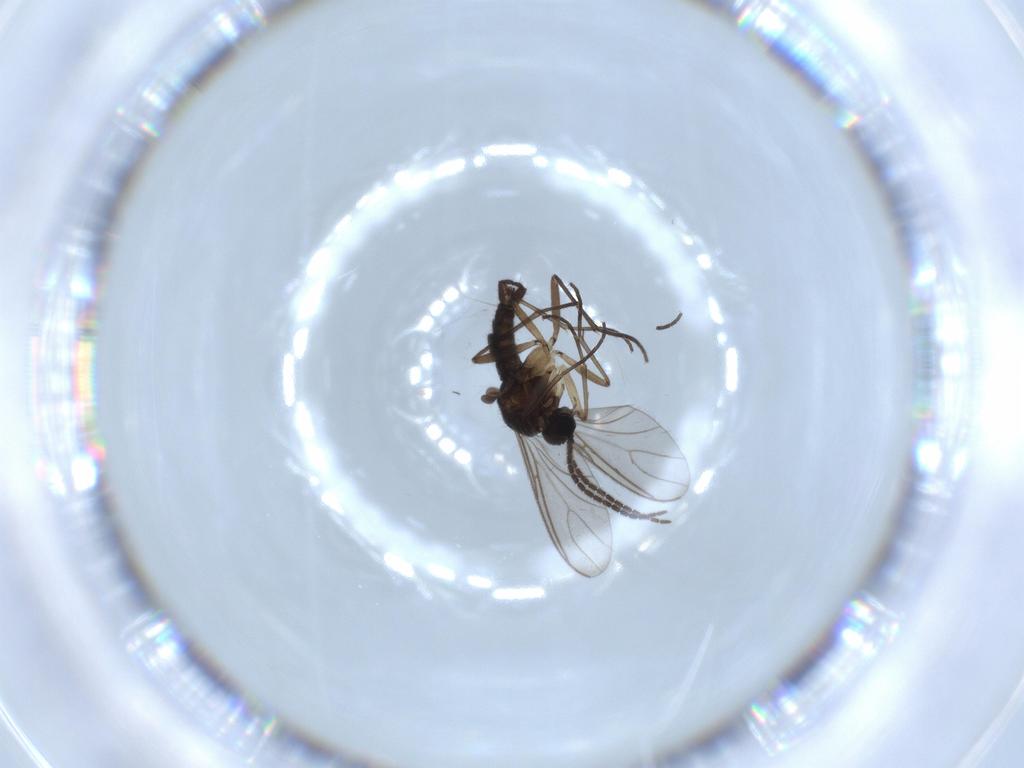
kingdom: Animalia
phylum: Arthropoda
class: Insecta
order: Diptera
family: Sciaridae
